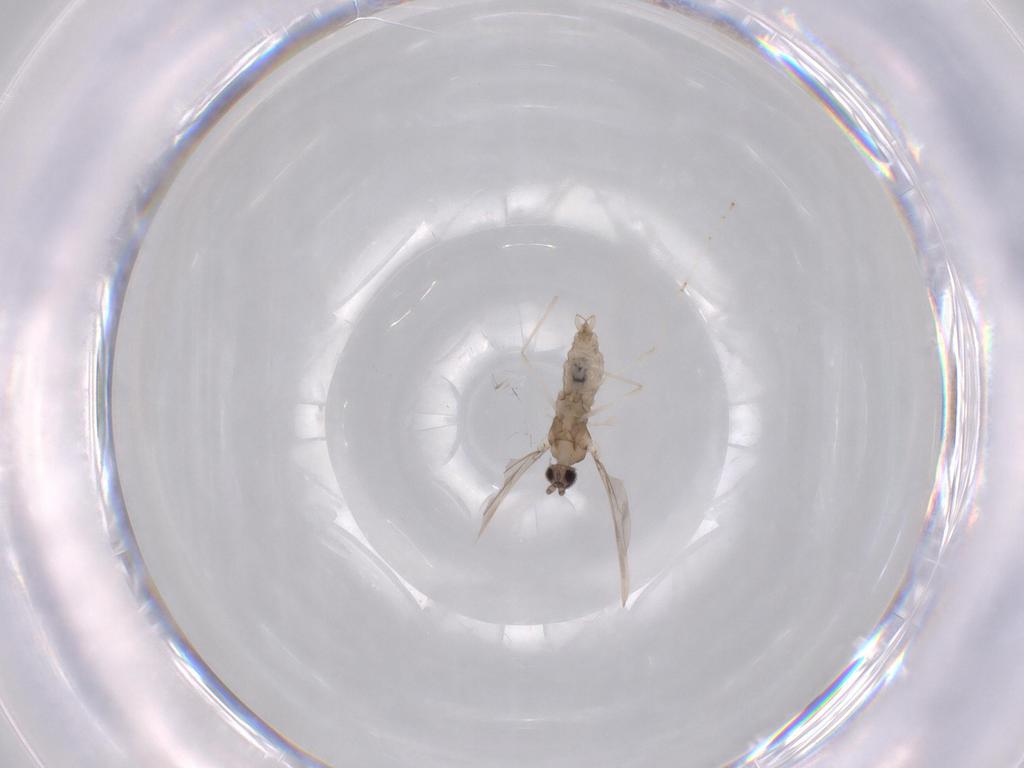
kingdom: Animalia
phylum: Arthropoda
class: Insecta
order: Diptera
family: Cecidomyiidae
